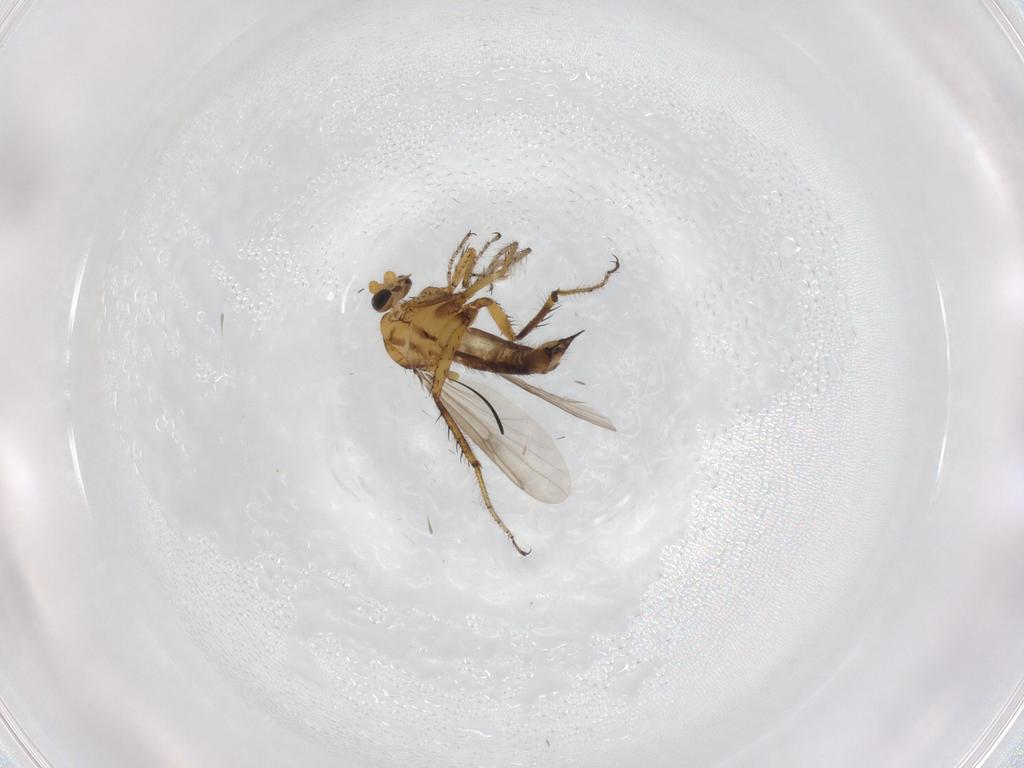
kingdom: Animalia
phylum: Arthropoda
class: Insecta
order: Diptera
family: Ceratopogonidae
